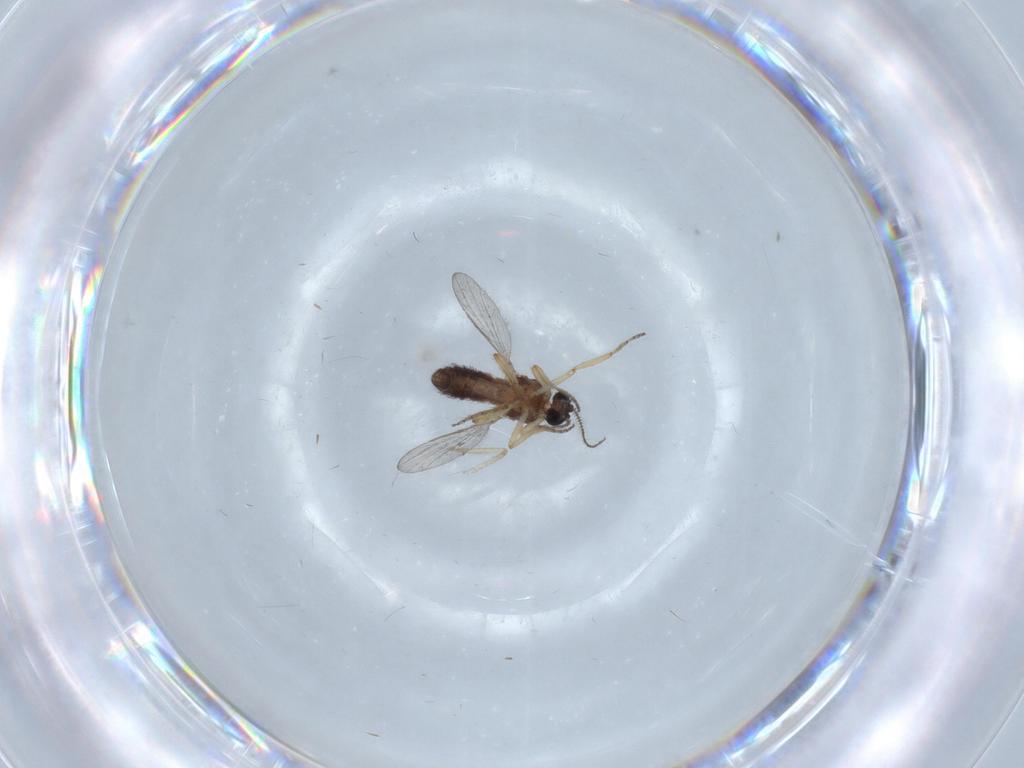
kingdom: Animalia
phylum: Arthropoda
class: Insecta
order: Diptera
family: Ceratopogonidae
